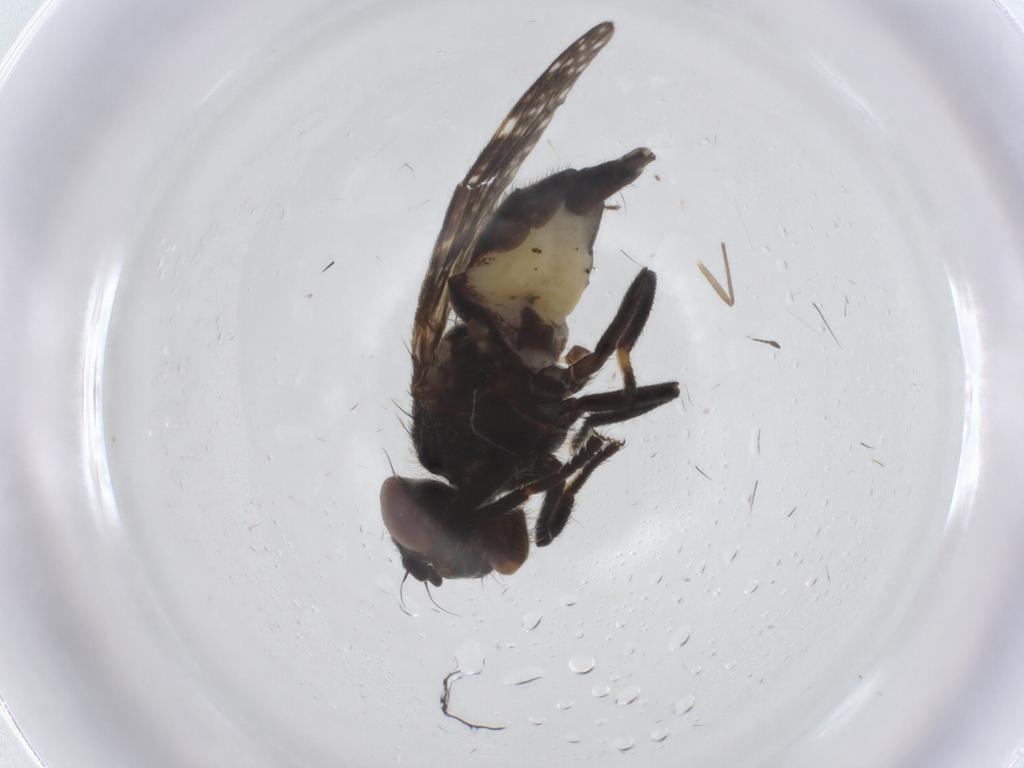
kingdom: Animalia
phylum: Arthropoda
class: Insecta
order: Diptera
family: Platystomatidae
